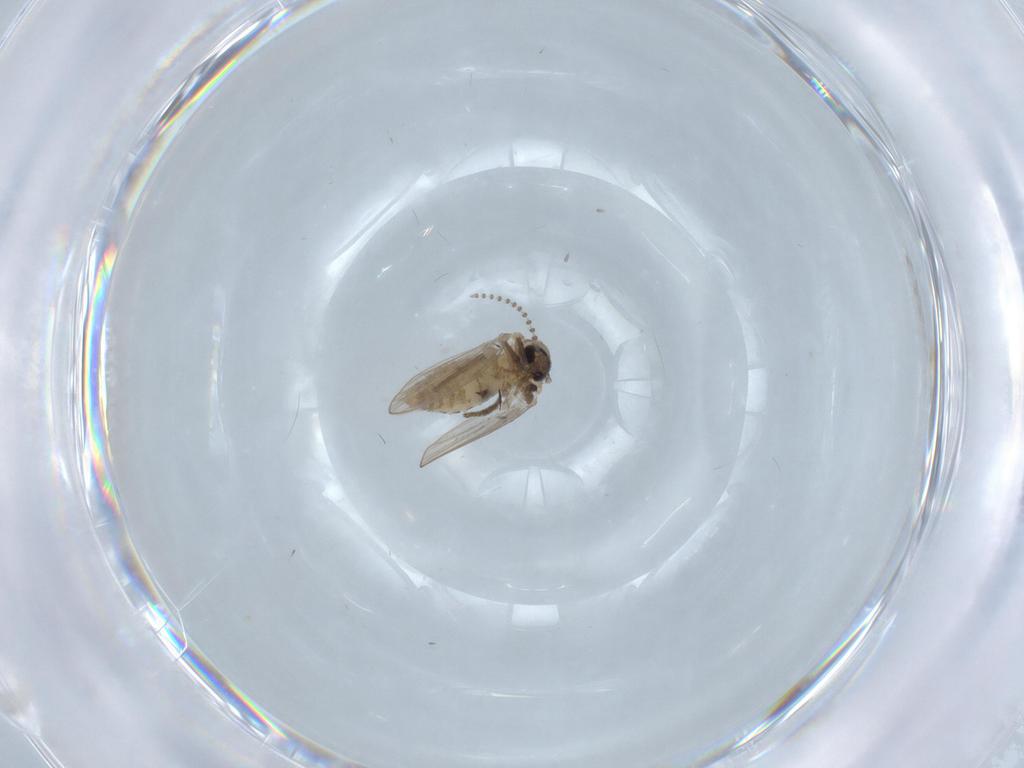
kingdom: Animalia
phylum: Arthropoda
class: Insecta
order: Diptera
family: Psychodidae
